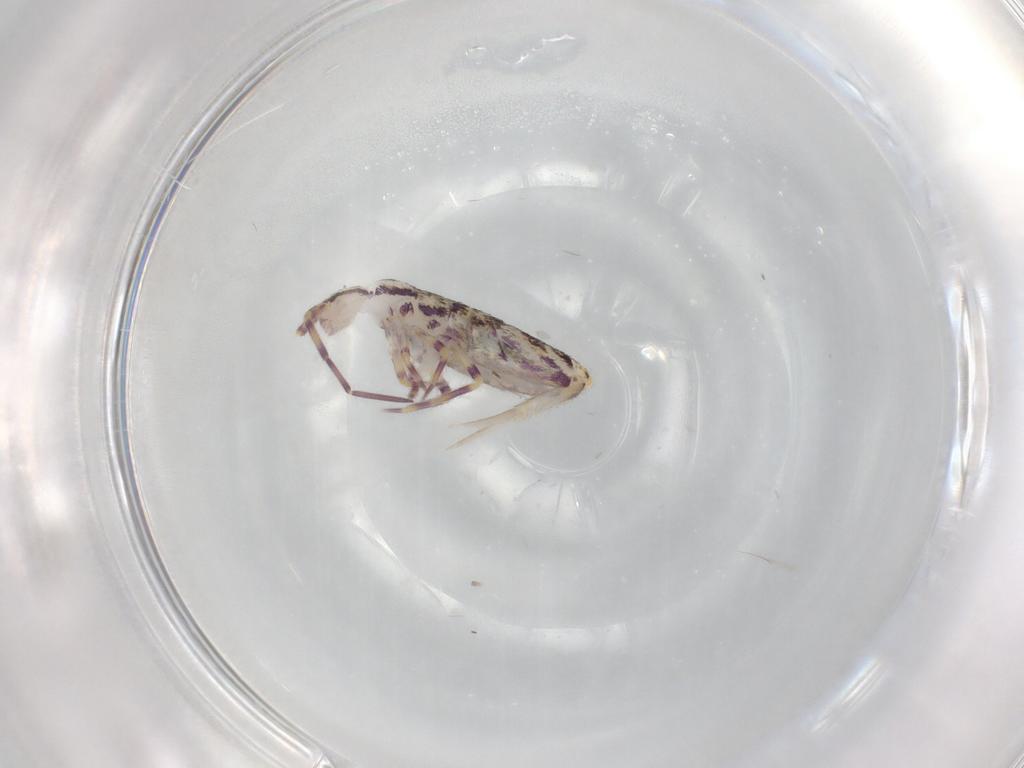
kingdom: Animalia
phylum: Arthropoda
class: Collembola
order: Entomobryomorpha
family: Entomobryidae
